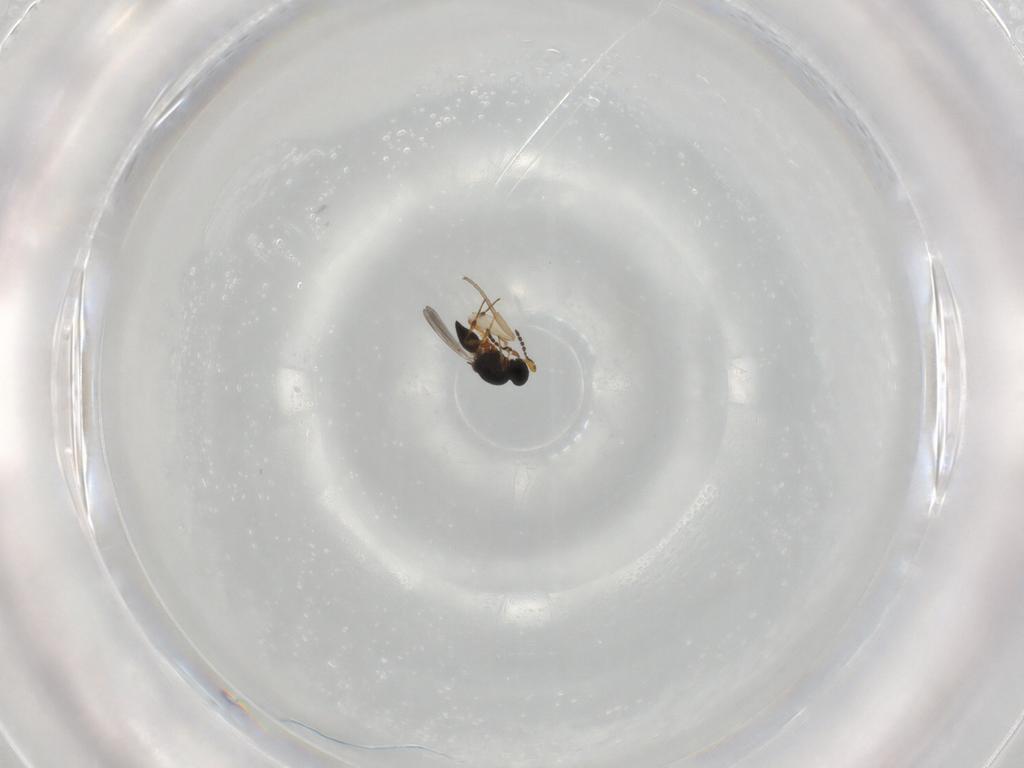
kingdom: Animalia
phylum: Arthropoda
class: Insecta
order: Hymenoptera
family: Platygastridae
